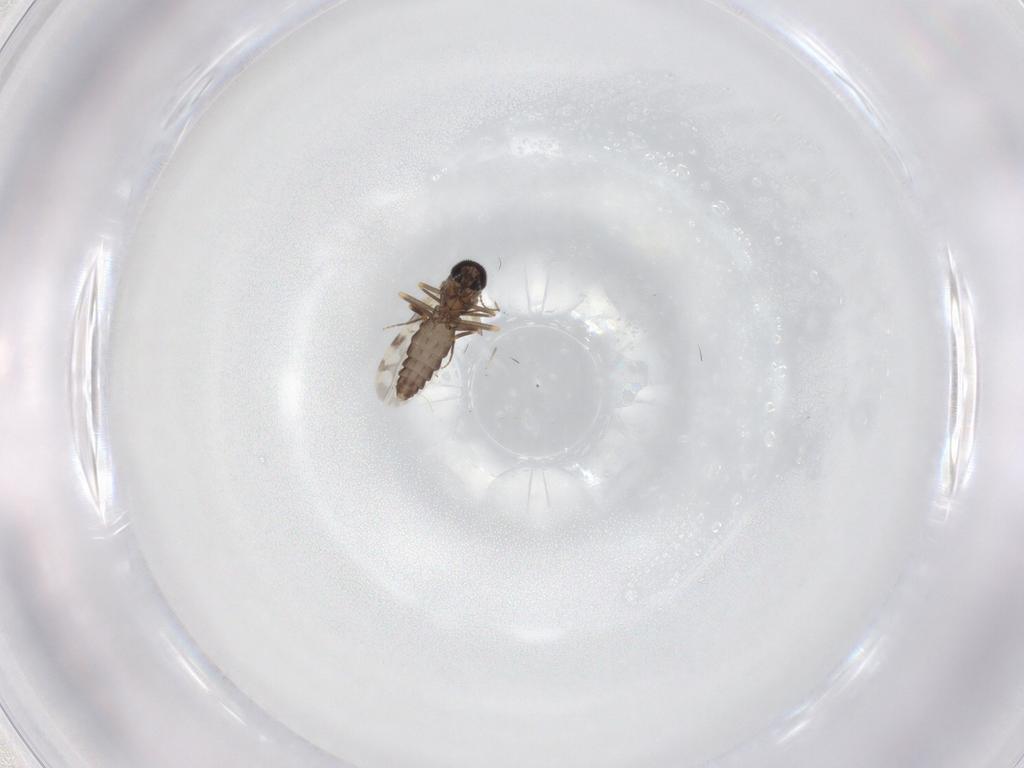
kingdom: Animalia
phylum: Arthropoda
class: Insecta
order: Diptera
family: Ceratopogonidae
